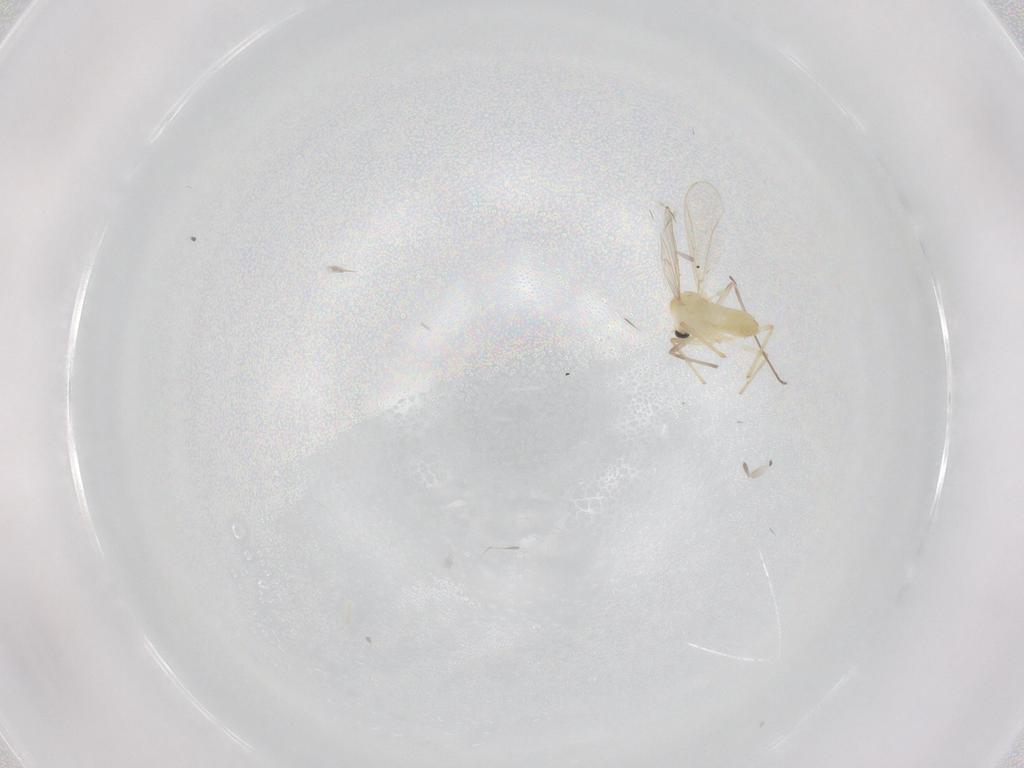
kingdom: Animalia
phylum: Arthropoda
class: Insecta
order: Diptera
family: Chironomidae
